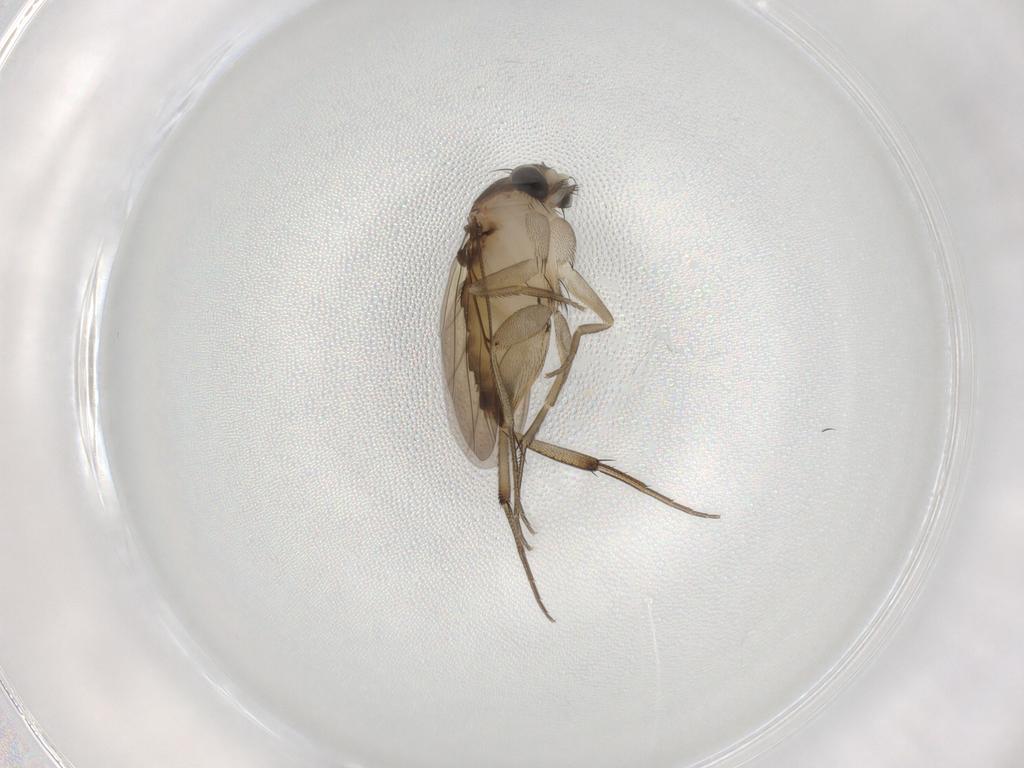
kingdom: Animalia
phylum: Arthropoda
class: Insecta
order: Diptera
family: Phoridae
